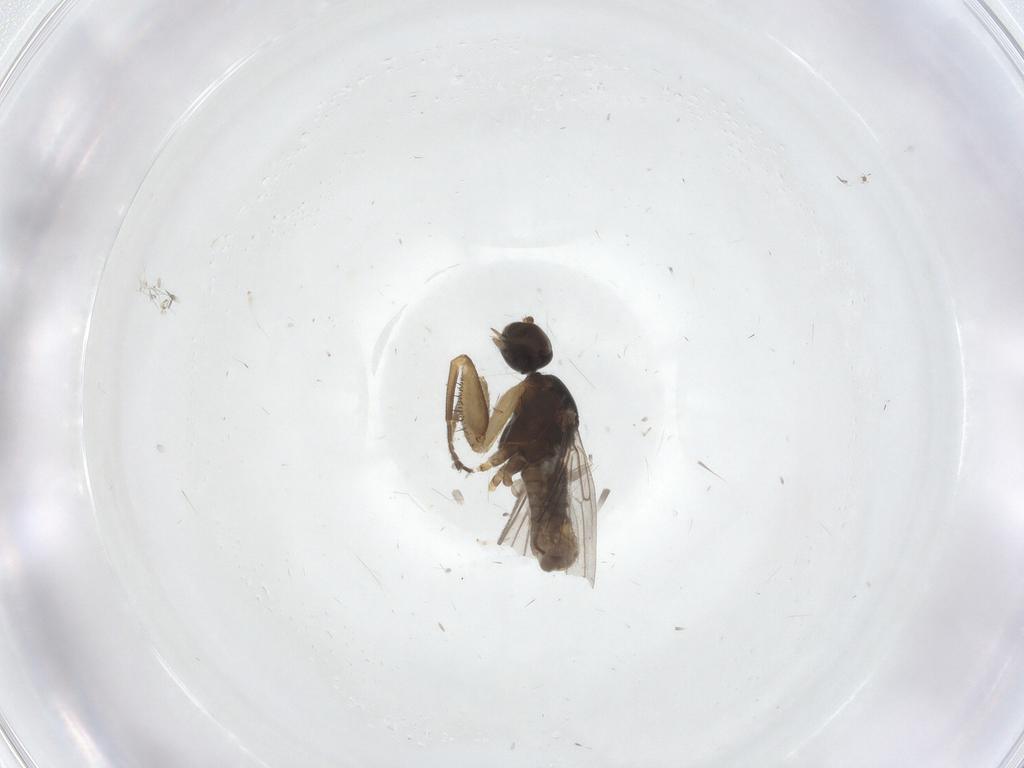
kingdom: Animalia
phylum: Arthropoda
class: Insecta
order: Diptera
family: Empididae
